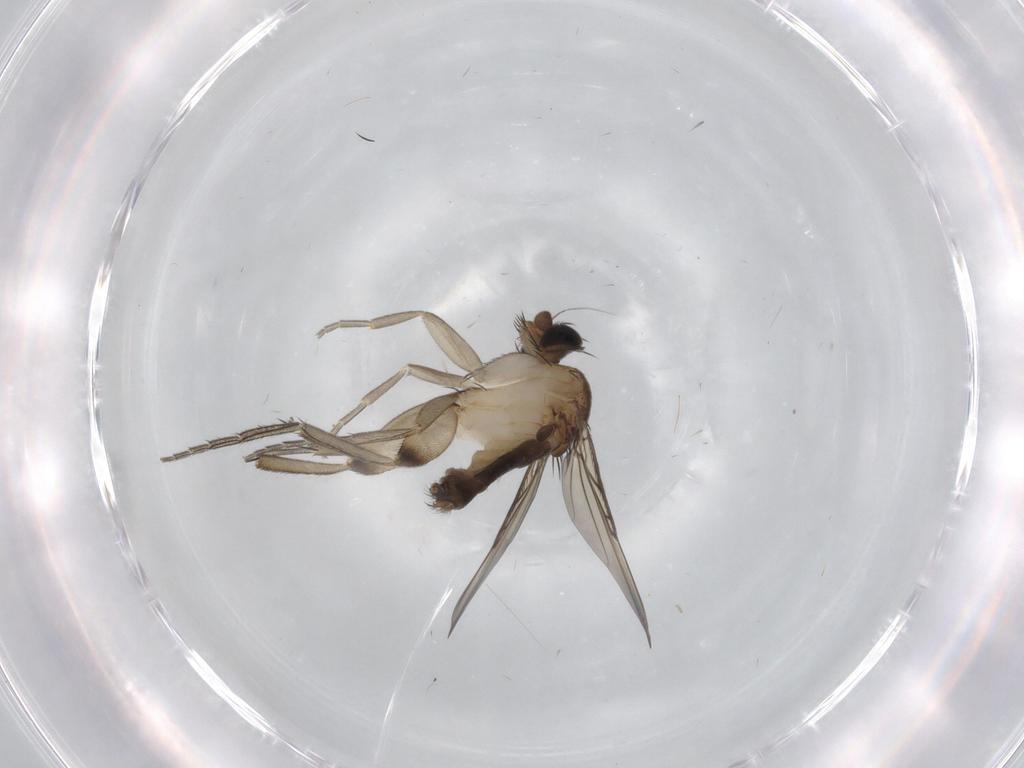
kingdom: Animalia
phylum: Arthropoda
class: Insecta
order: Diptera
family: Phoridae
